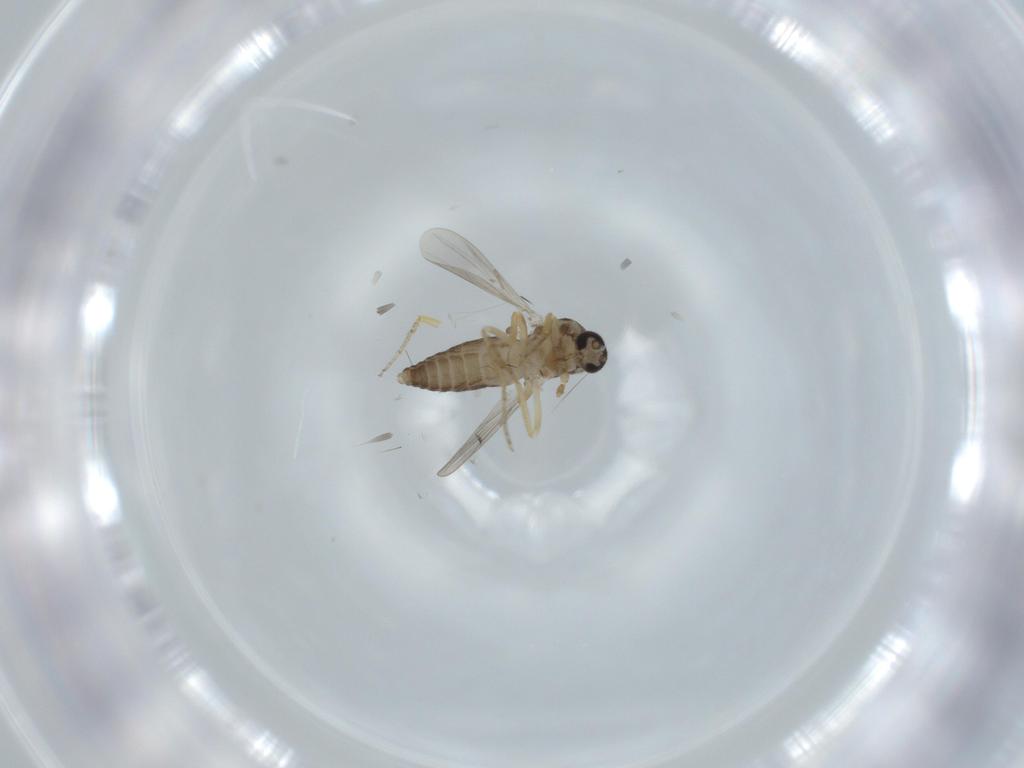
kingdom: Animalia
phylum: Arthropoda
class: Insecta
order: Diptera
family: Ceratopogonidae
